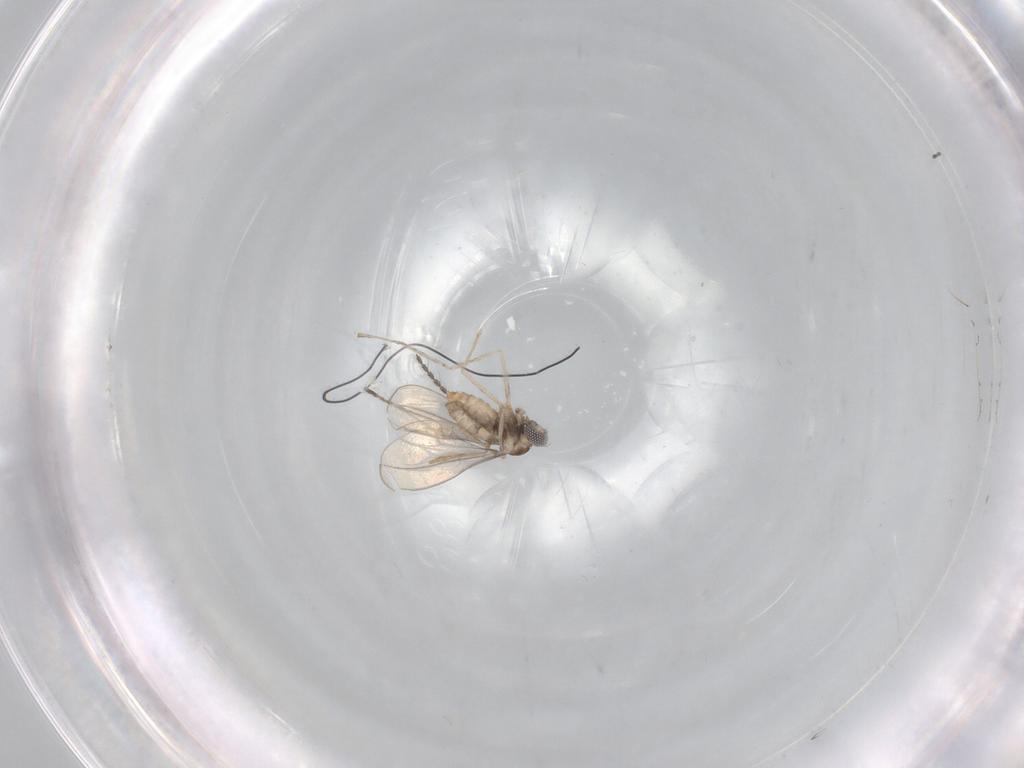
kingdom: Animalia
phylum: Arthropoda
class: Insecta
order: Diptera
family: Cecidomyiidae
